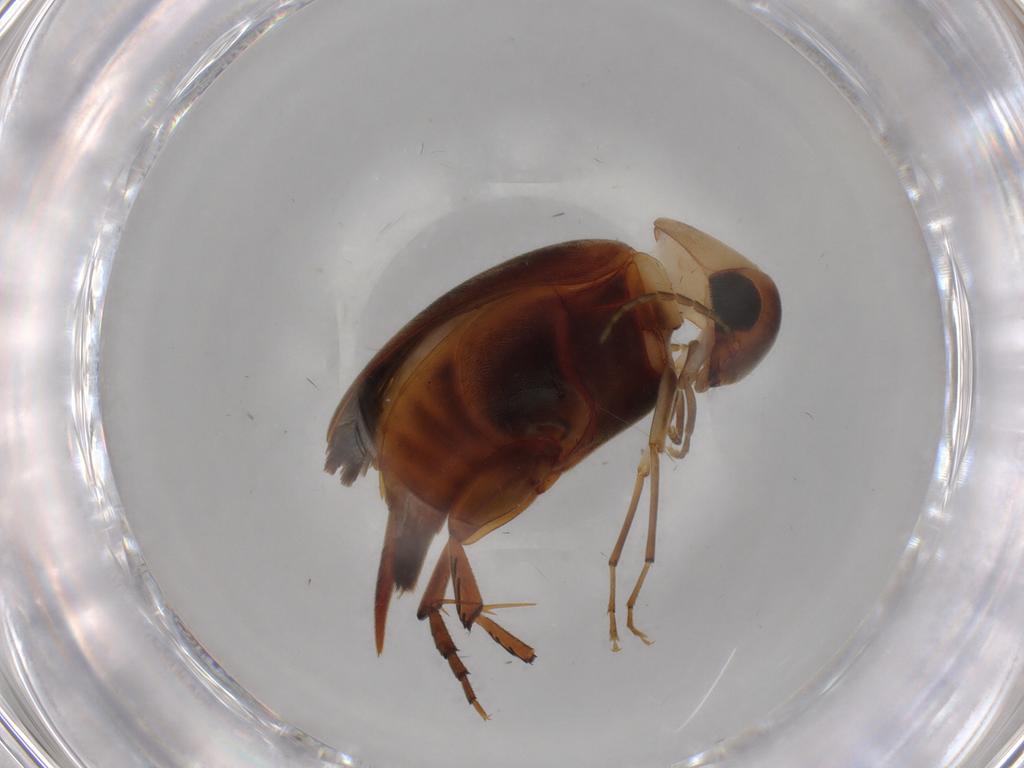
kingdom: Animalia
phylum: Arthropoda
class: Insecta
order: Coleoptera
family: Mordellidae
